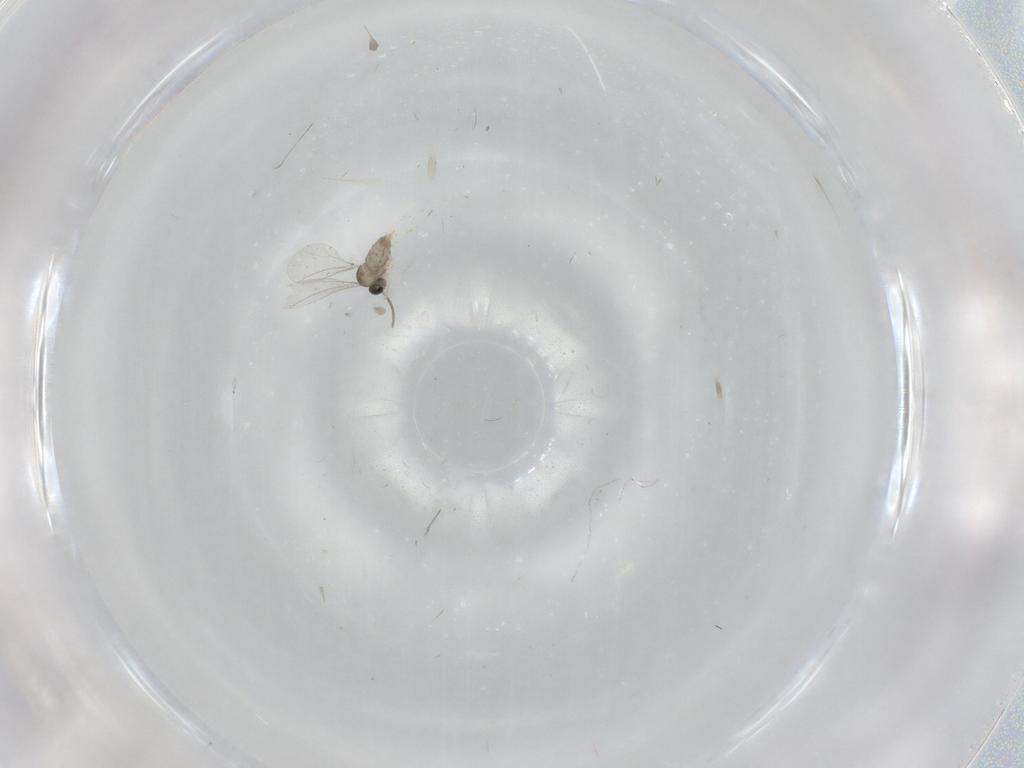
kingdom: Animalia
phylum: Arthropoda
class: Insecta
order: Diptera
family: Cecidomyiidae
